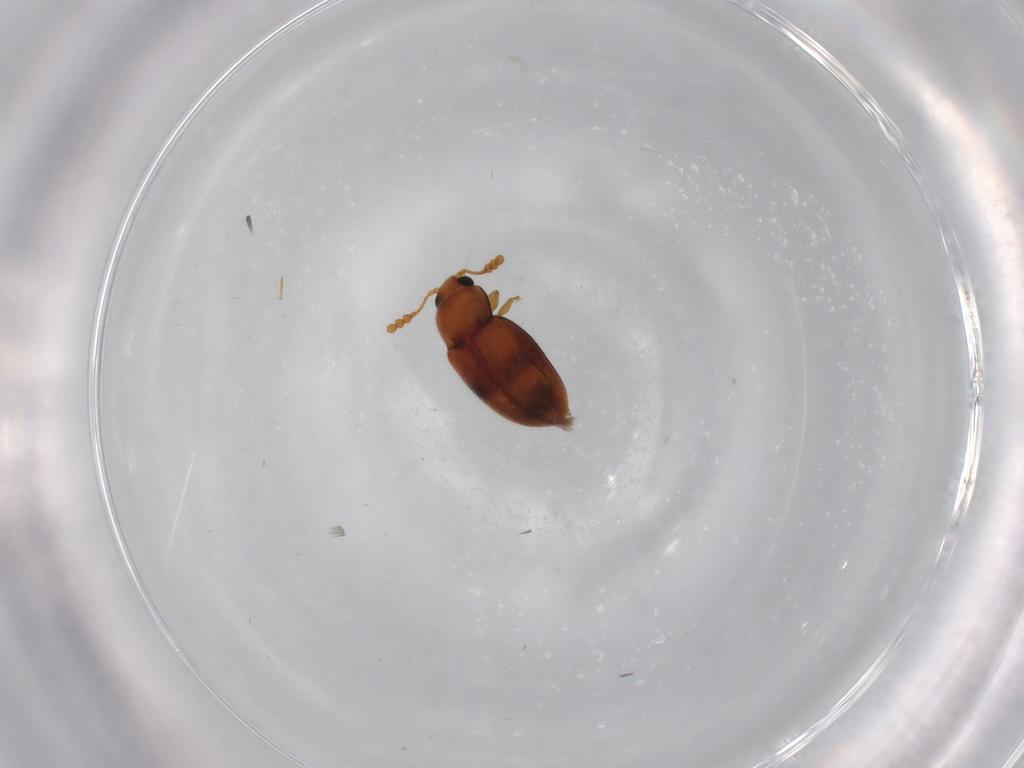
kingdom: Animalia
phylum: Arthropoda
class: Insecta
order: Coleoptera
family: Erotylidae
